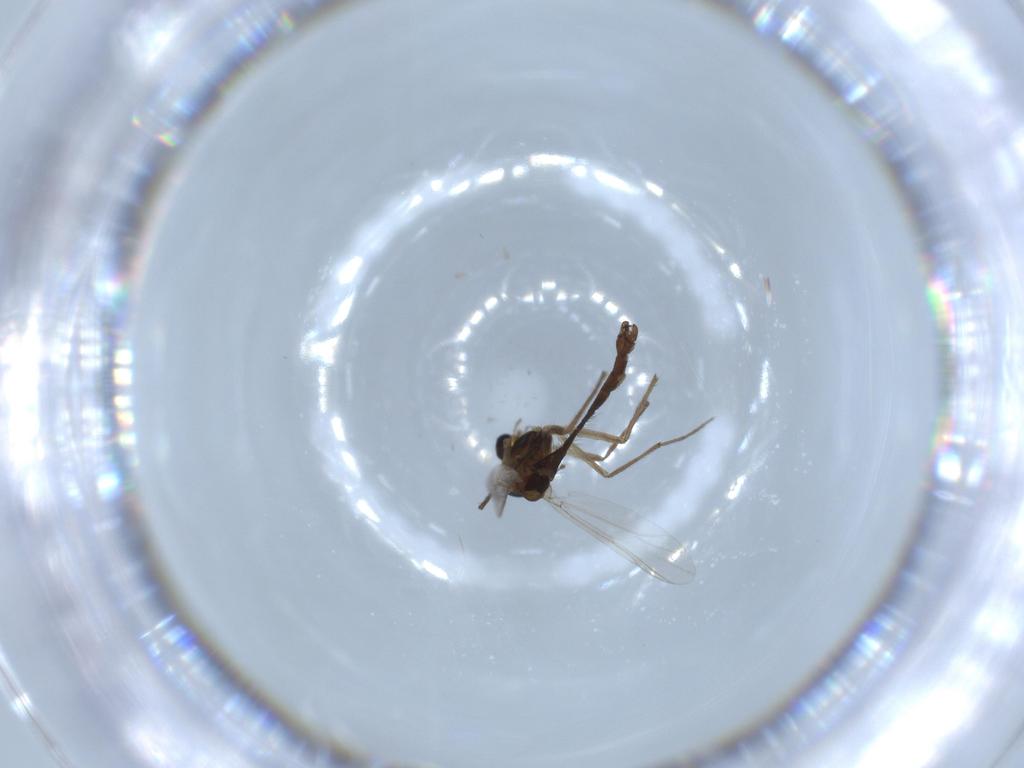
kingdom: Animalia
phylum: Arthropoda
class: Insecta
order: Diptera
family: Chironomidae
